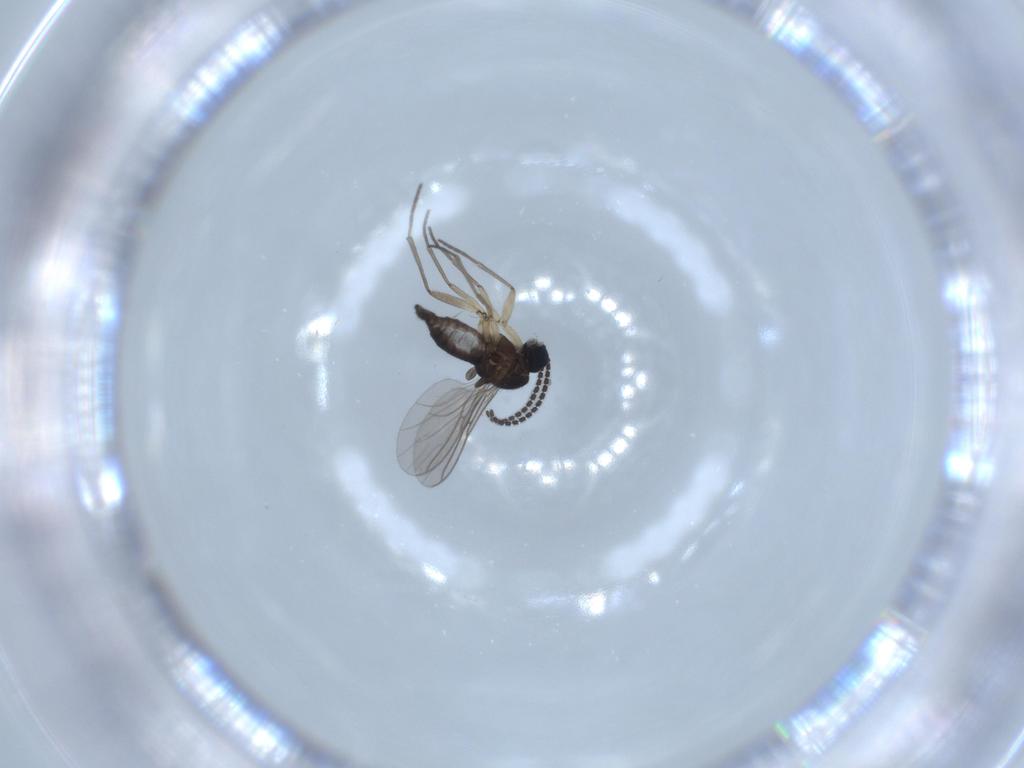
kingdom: Animalia
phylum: Arthropoda
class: Insecta
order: Diptera
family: Sciaridae
